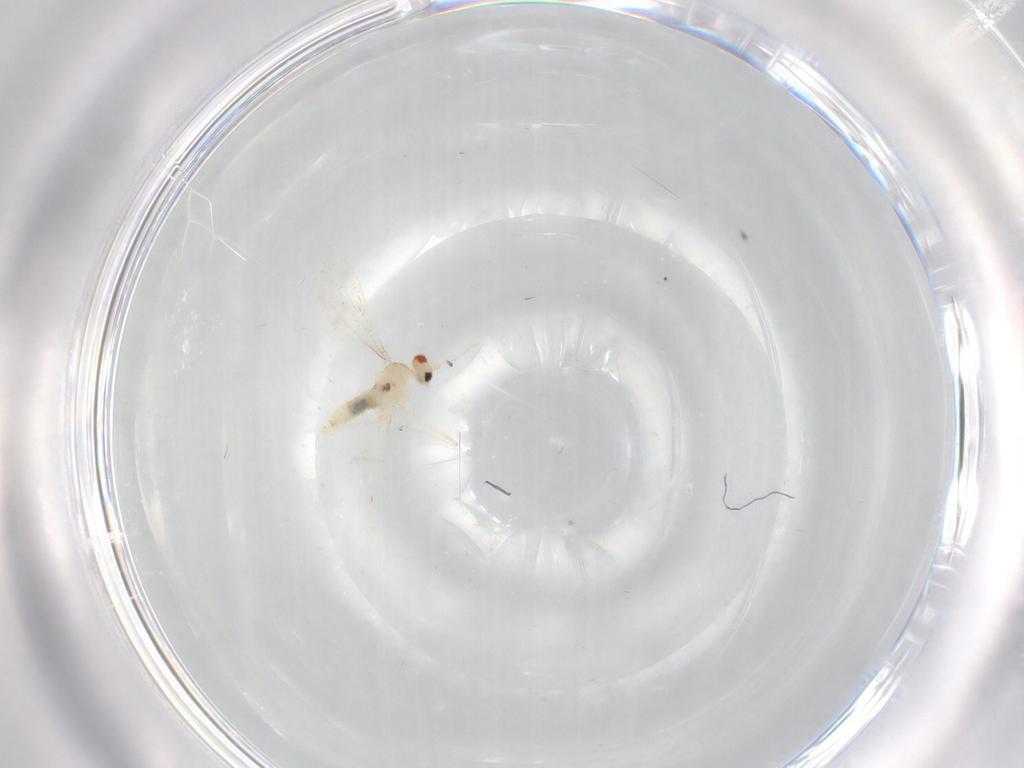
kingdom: Animalia
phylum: Arthropoda
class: Insecta
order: Diptera
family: Cecidomyiidae
